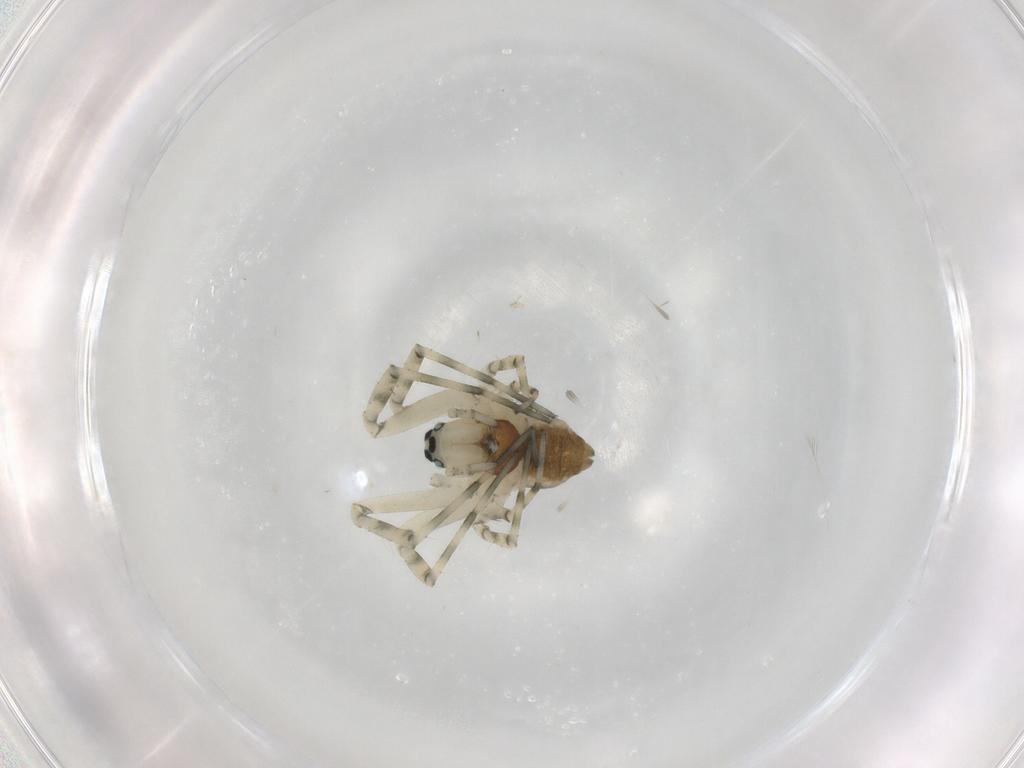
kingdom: Animalia
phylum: Arthropoda
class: Arachnida
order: Araneae
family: Linyphiidae
